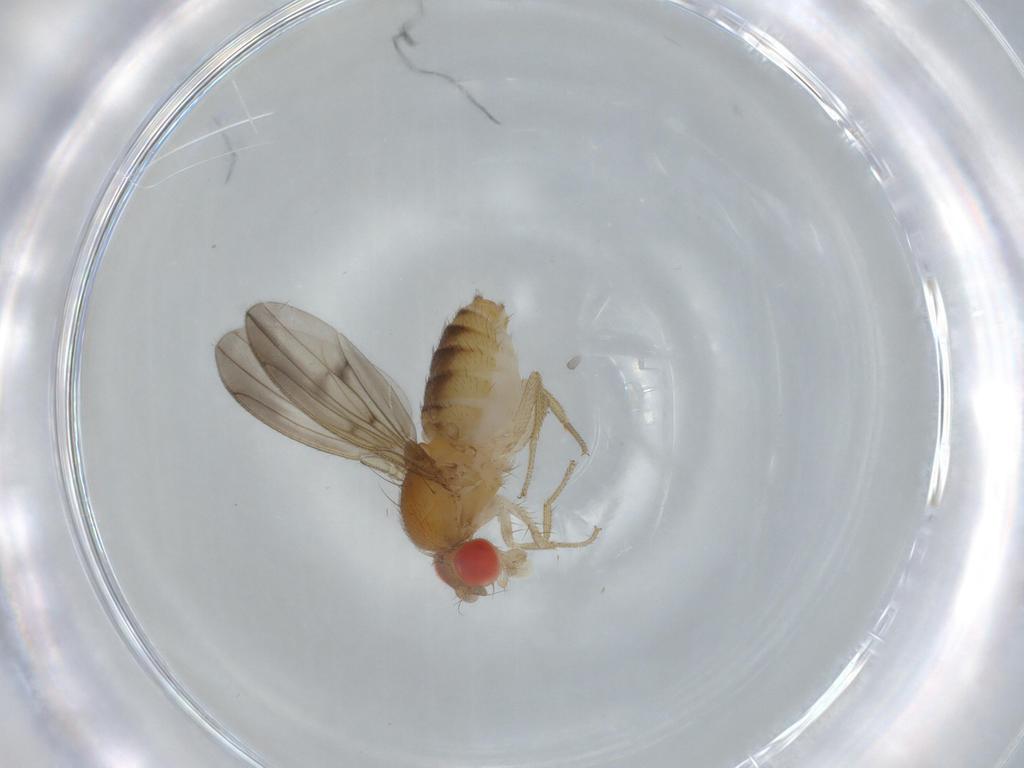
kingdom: Animalia
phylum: Arthropoda
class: Insecta
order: Diptera
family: Drosophilidae
